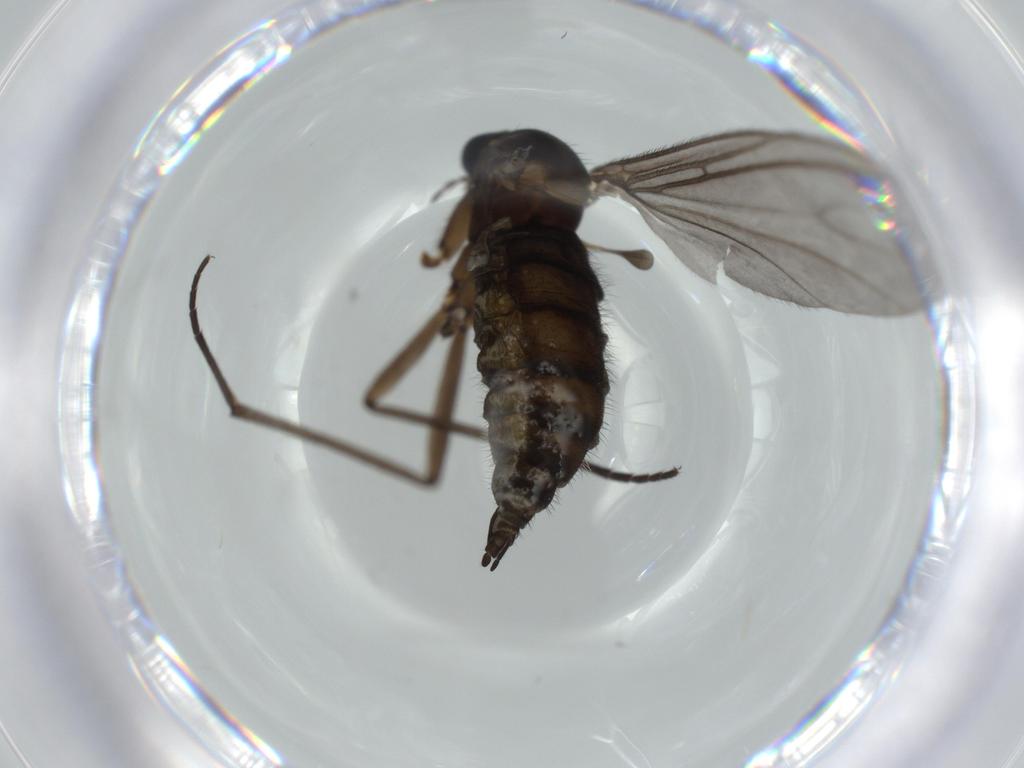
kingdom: Animalia
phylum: Arthropoda
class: Insecta
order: Diptera
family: Sciaridae
